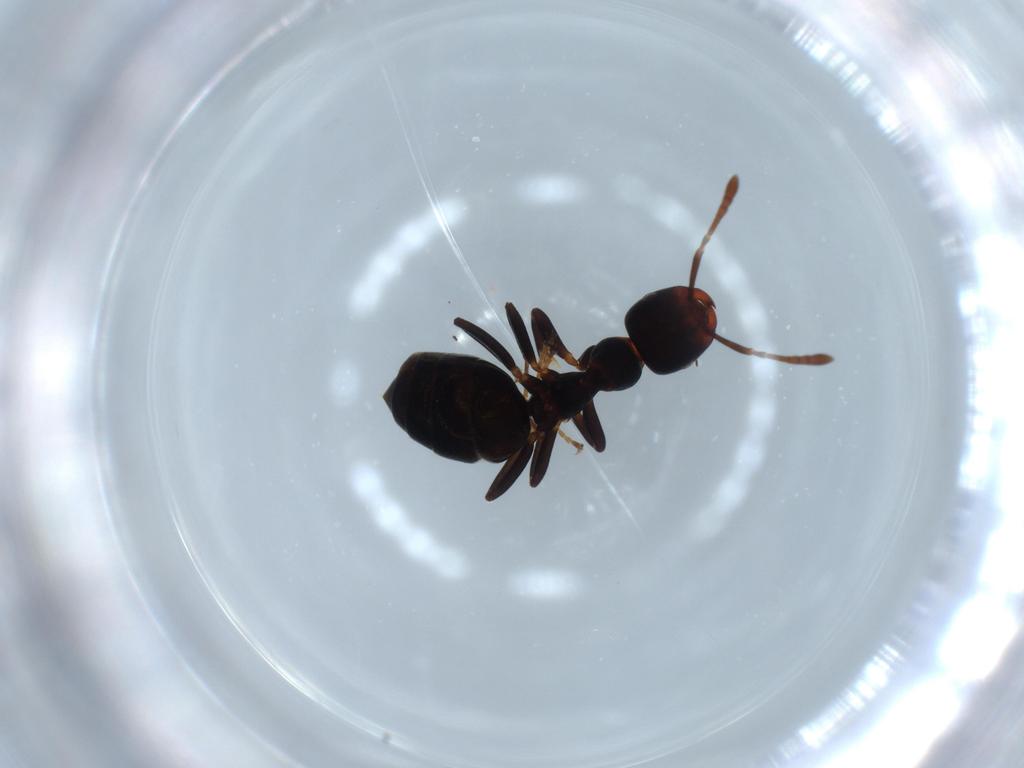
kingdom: Animalia
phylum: Arthropoda
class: Insecta
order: Hymenoptera
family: Formicidae
